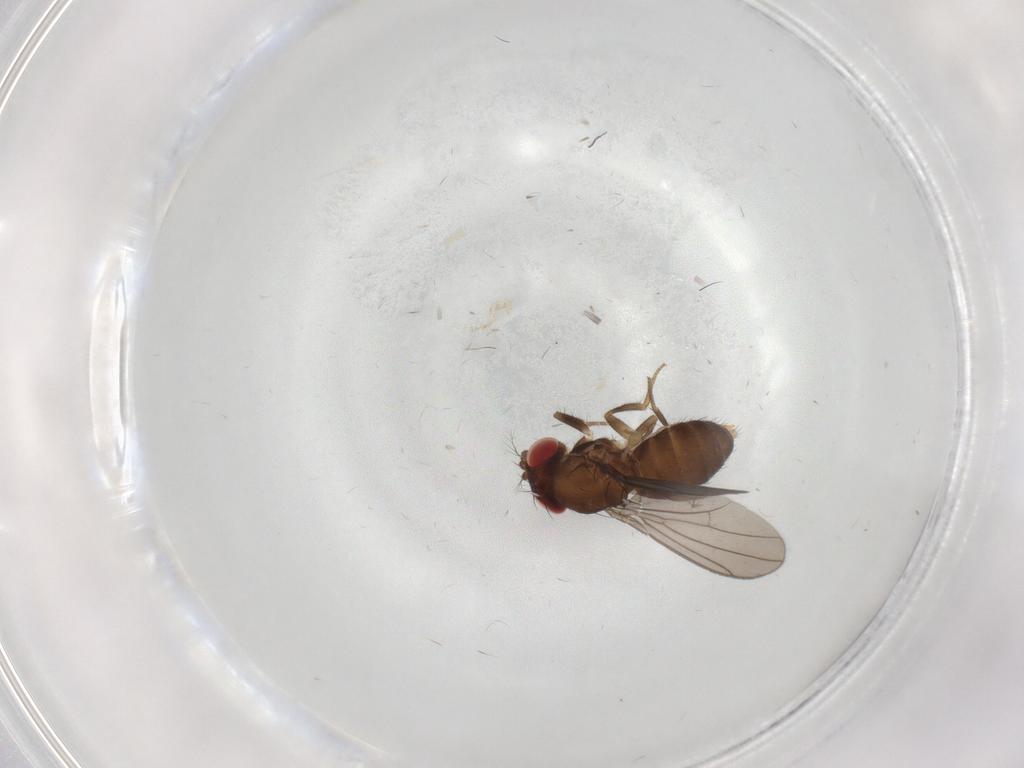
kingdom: Animalia
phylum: Arthropoda
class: Insecta
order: Diptera
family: Drosophilidae
